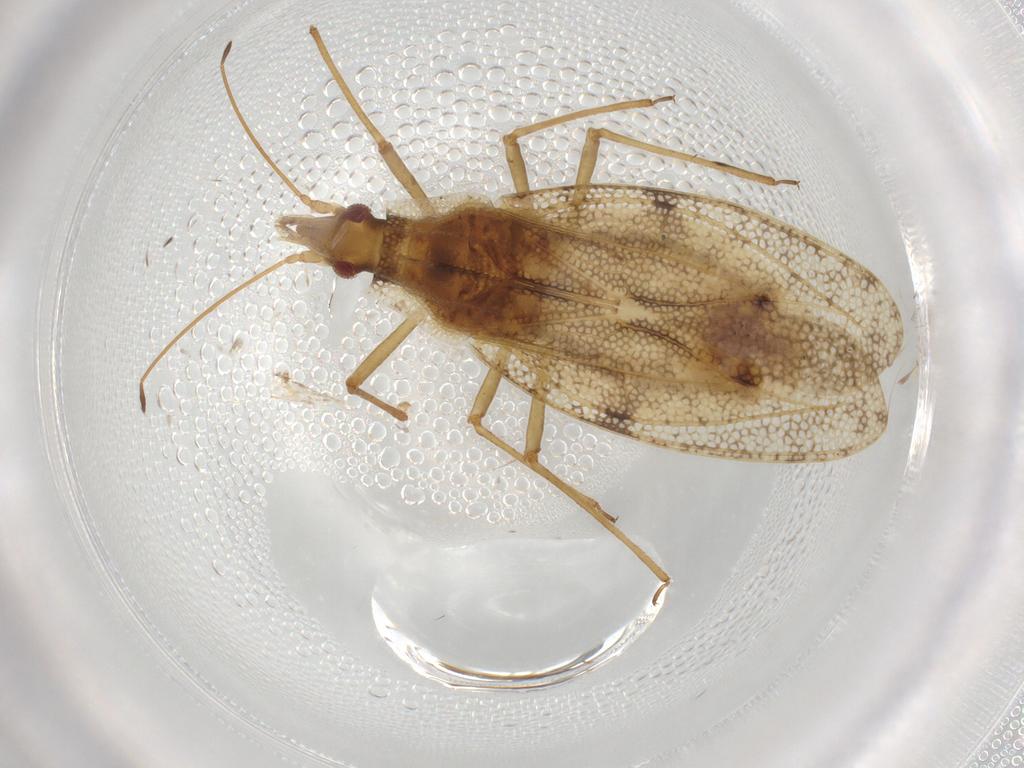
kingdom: Animalia
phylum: Arthropoda
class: Insecta
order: Hemiptera
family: Tingidae
